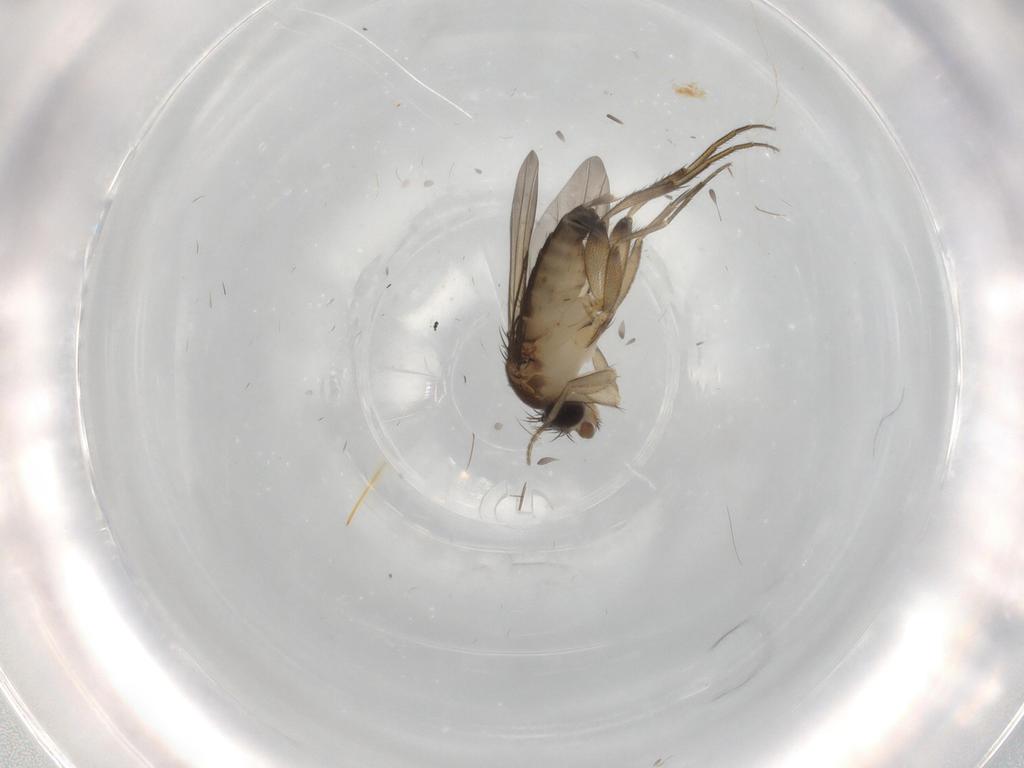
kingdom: Animalia
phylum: Arthropoda
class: Insecta
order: Diptera
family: Phoridae
